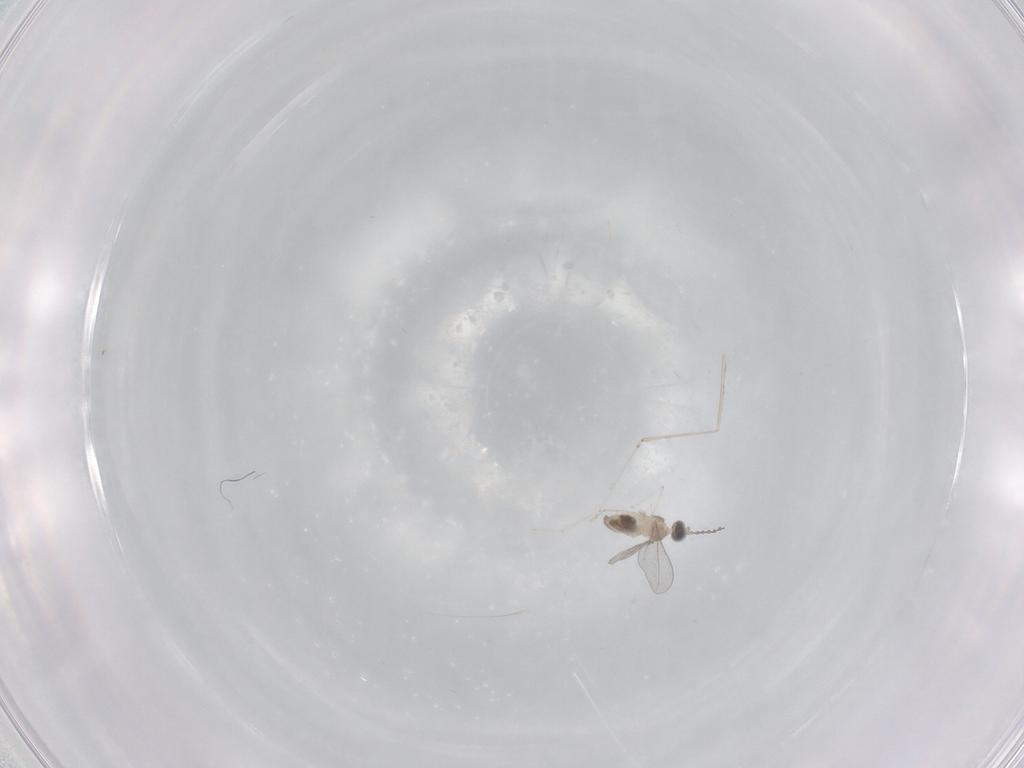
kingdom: Animalia
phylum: Arthropoda
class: Insecta
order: Diptera
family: Cecidomyiidae
